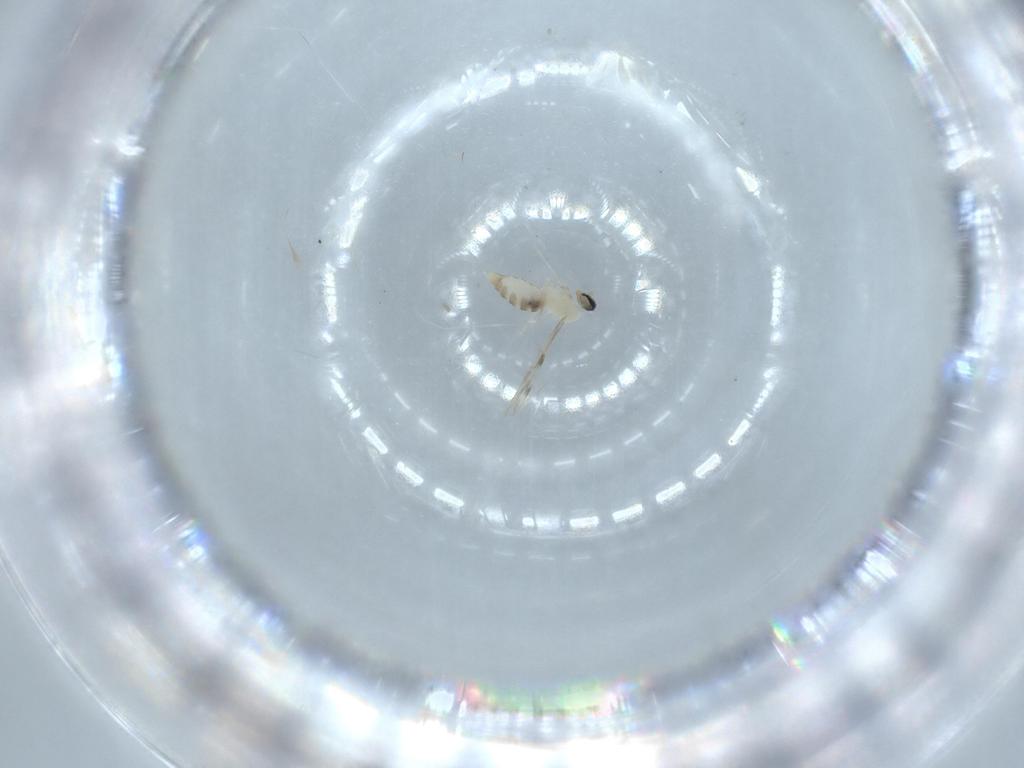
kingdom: Animalia
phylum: Arthropoda
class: Insecta
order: Diptera
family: Cecidomyiidae
